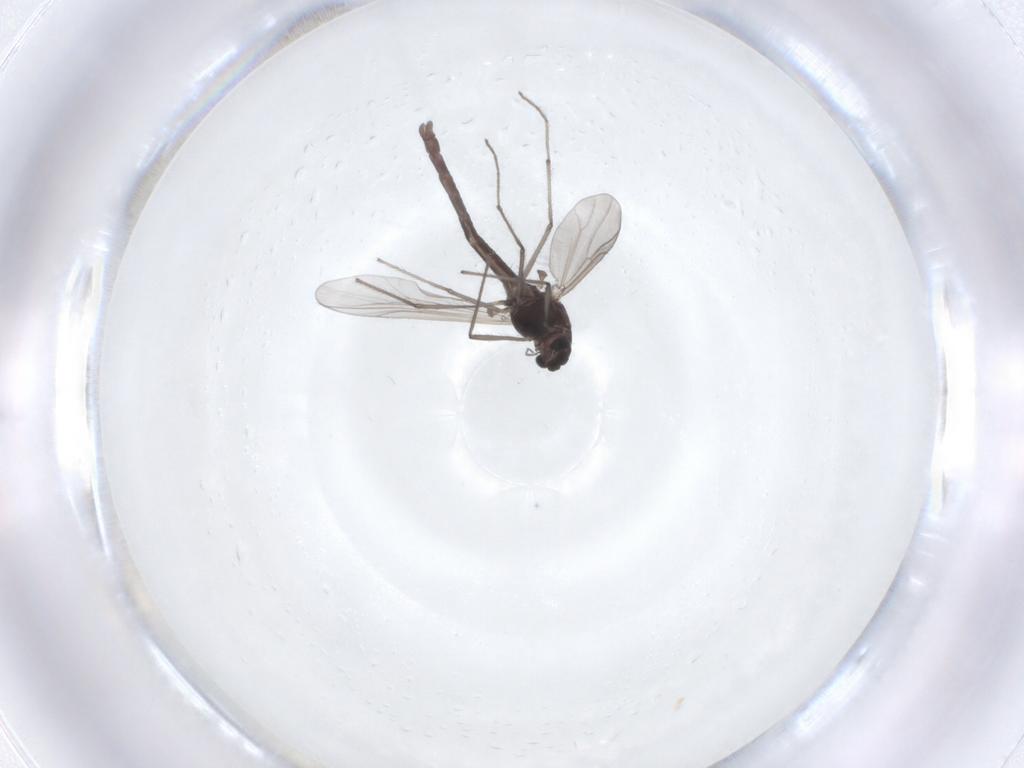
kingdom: Animalia
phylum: Arthropoda
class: Insecta
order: Diptera
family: Chironomidae
